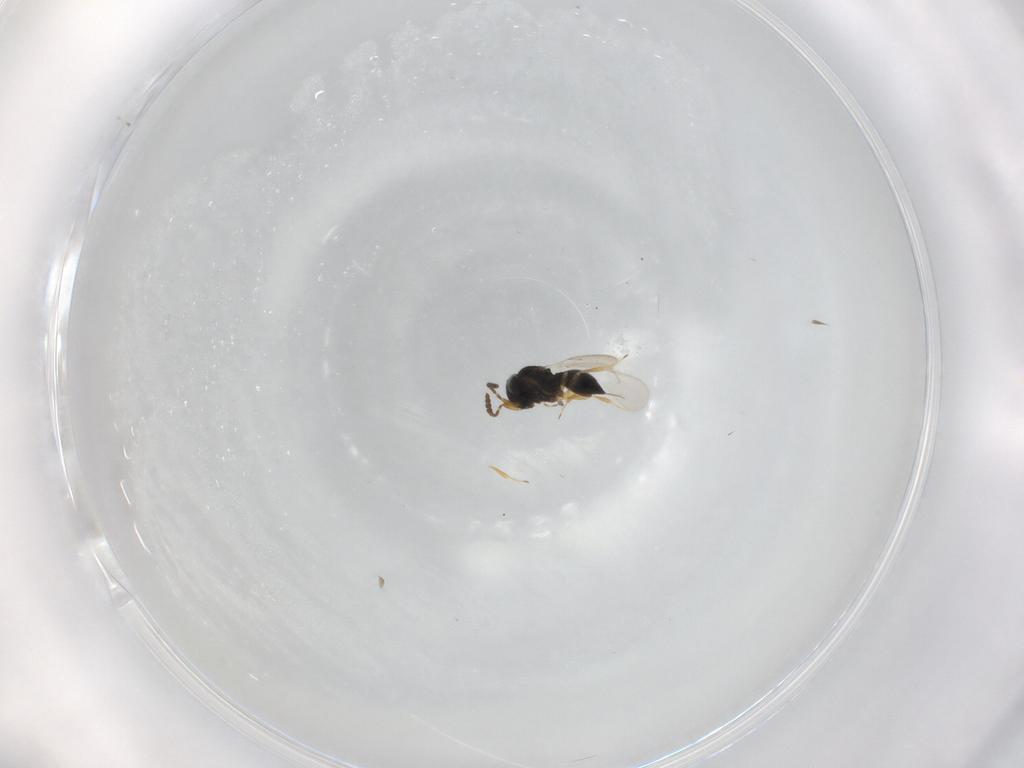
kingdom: Animalia
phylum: Arthropoda
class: Insecta
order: Hymenoptera
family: Scelionidae
